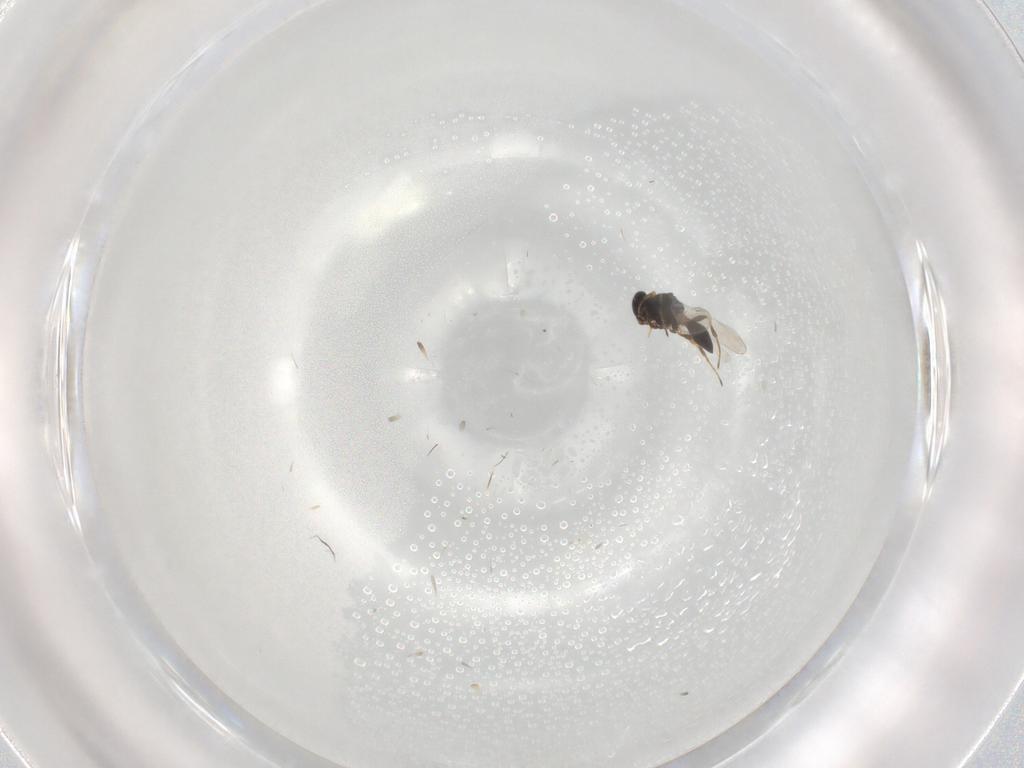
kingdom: Animalia
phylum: Arthropoda
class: Insecta
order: Hymenoptera
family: Platygastridae
